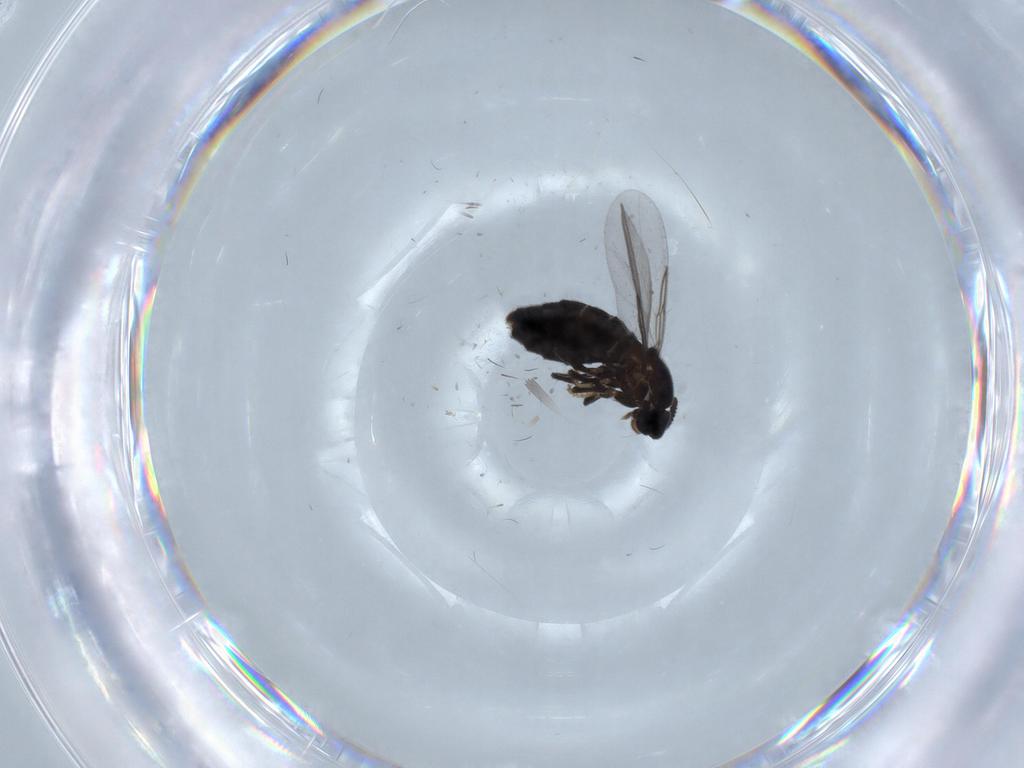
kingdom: Animalia
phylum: Arthropoda
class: Insecta
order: Diptera
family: Scatopsidae
